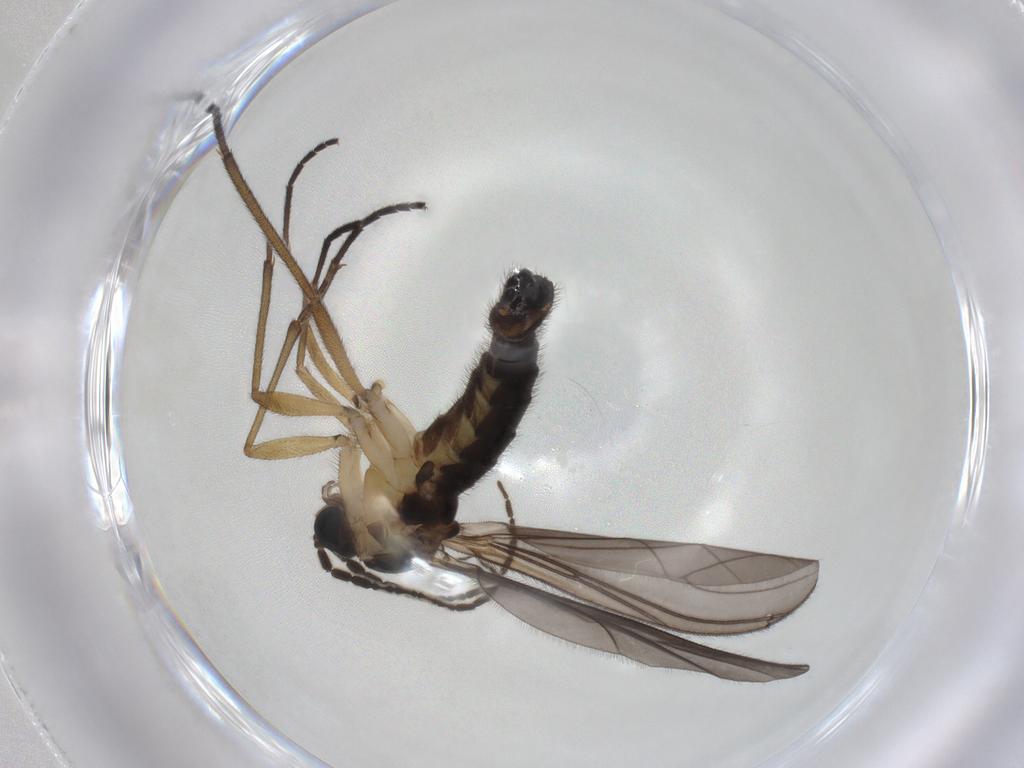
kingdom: Animalia
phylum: Arthropoda
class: Insecta
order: Diptera
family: Sciaridae
